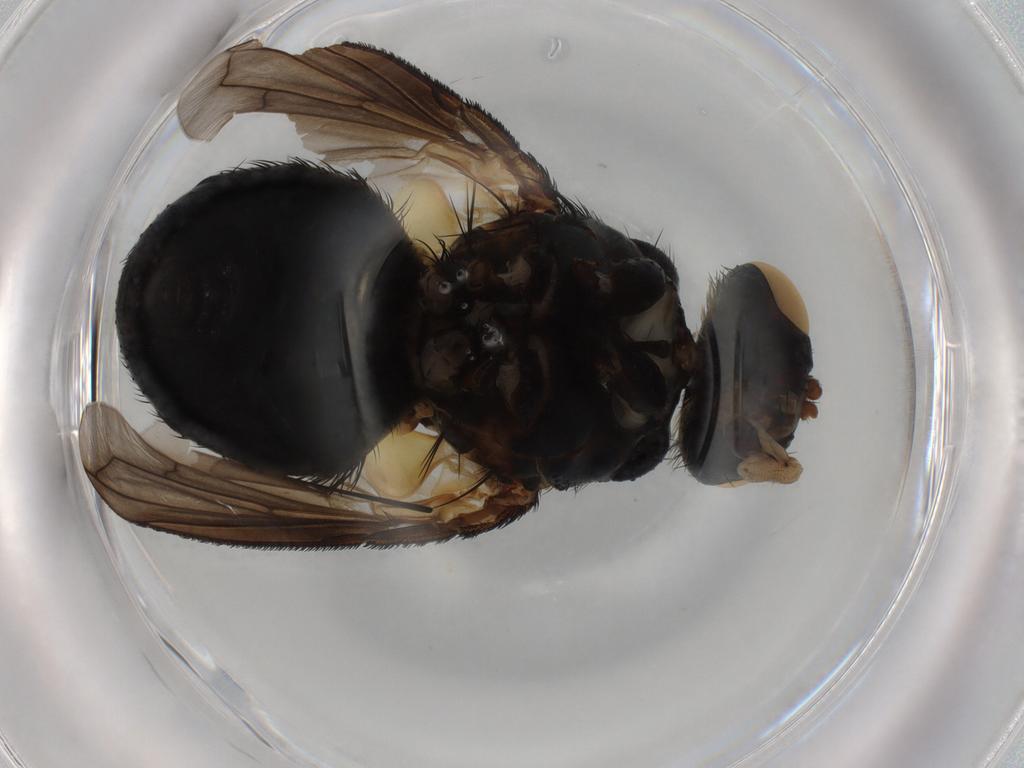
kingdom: Animalia
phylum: Arthropoda
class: Insecta
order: Diptera
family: Tachinidae
